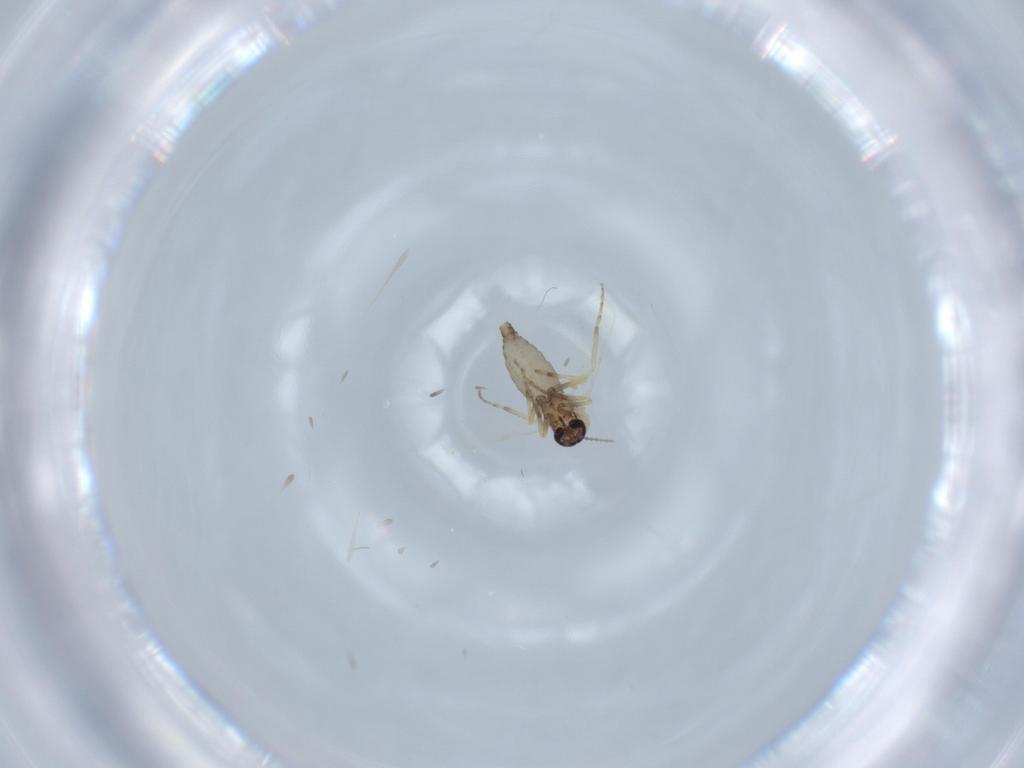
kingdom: Animalia
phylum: Arthropoda
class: Insecta
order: Diptera
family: Ceratopogonidae
